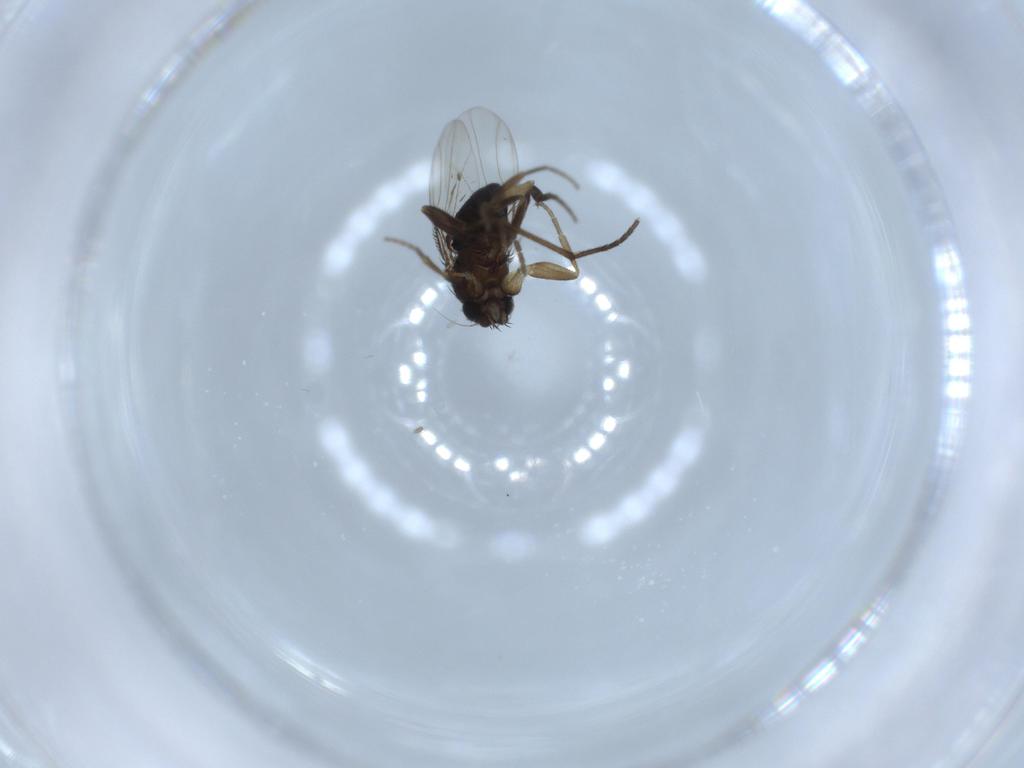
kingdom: Animalia
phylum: Arthropoda
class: Insecta
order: Diptera
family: Phoridae
